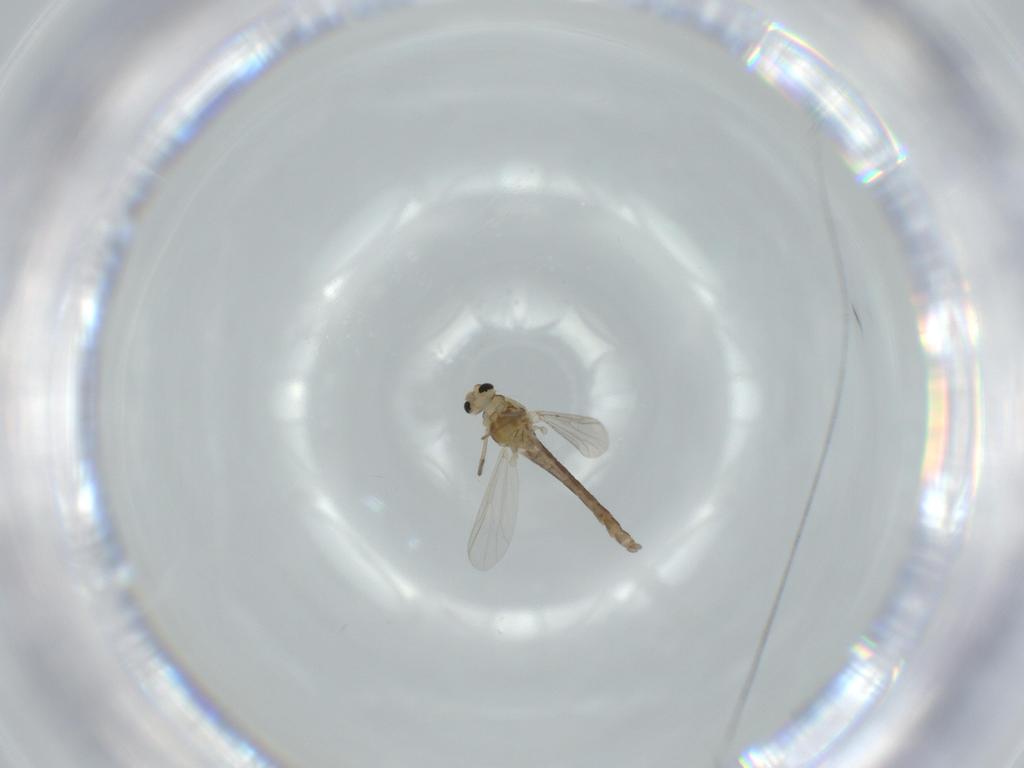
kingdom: Animalia
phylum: Arthropoda
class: Insecta
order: Diptera
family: Chironomidae
